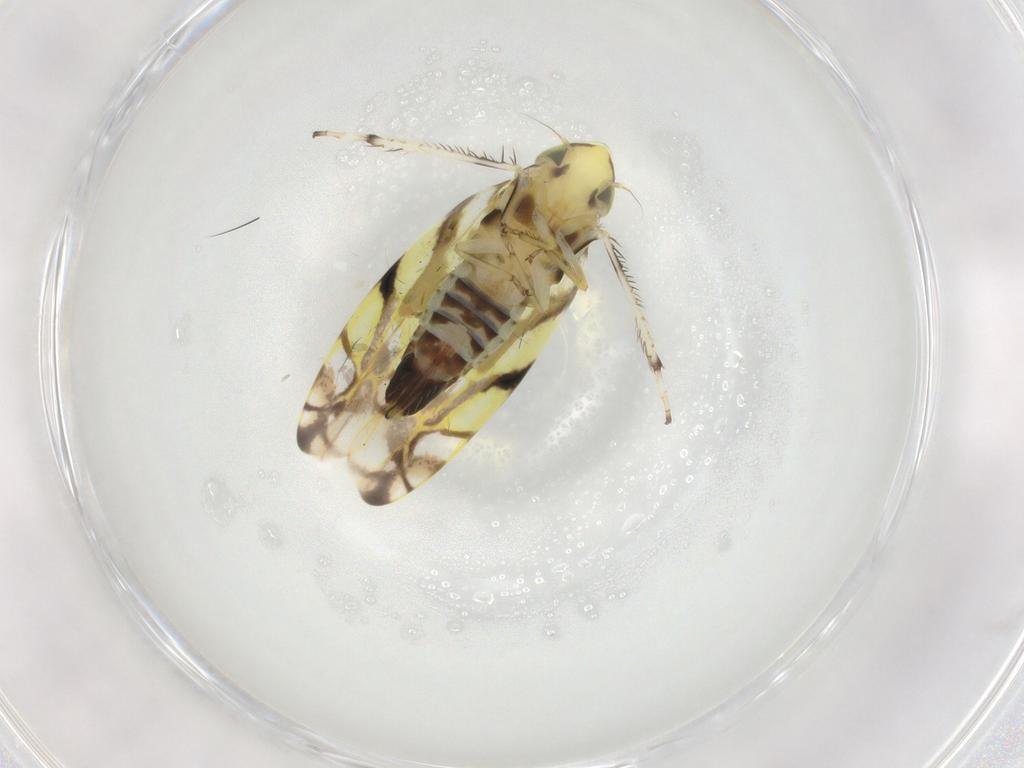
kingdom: Animalia
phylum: Arthropoda
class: Insecta
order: Hemiptera
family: Cicadellidae
